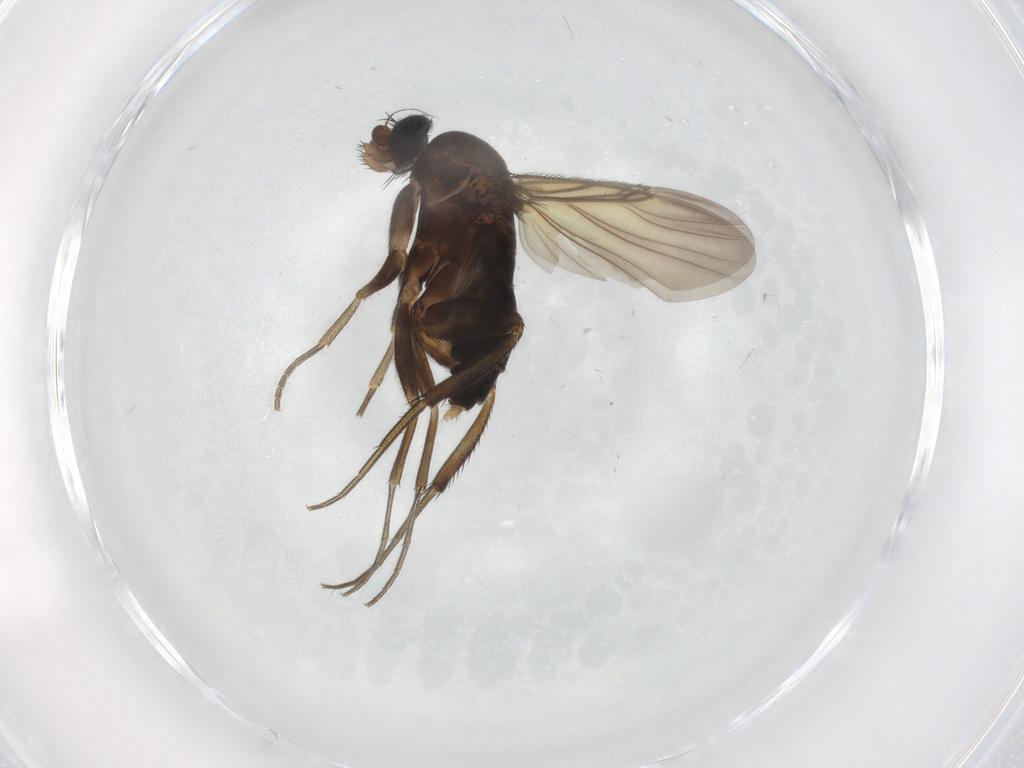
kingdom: Animalia
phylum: Arthropoda
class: Insecta
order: Diptera
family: Phoridae
